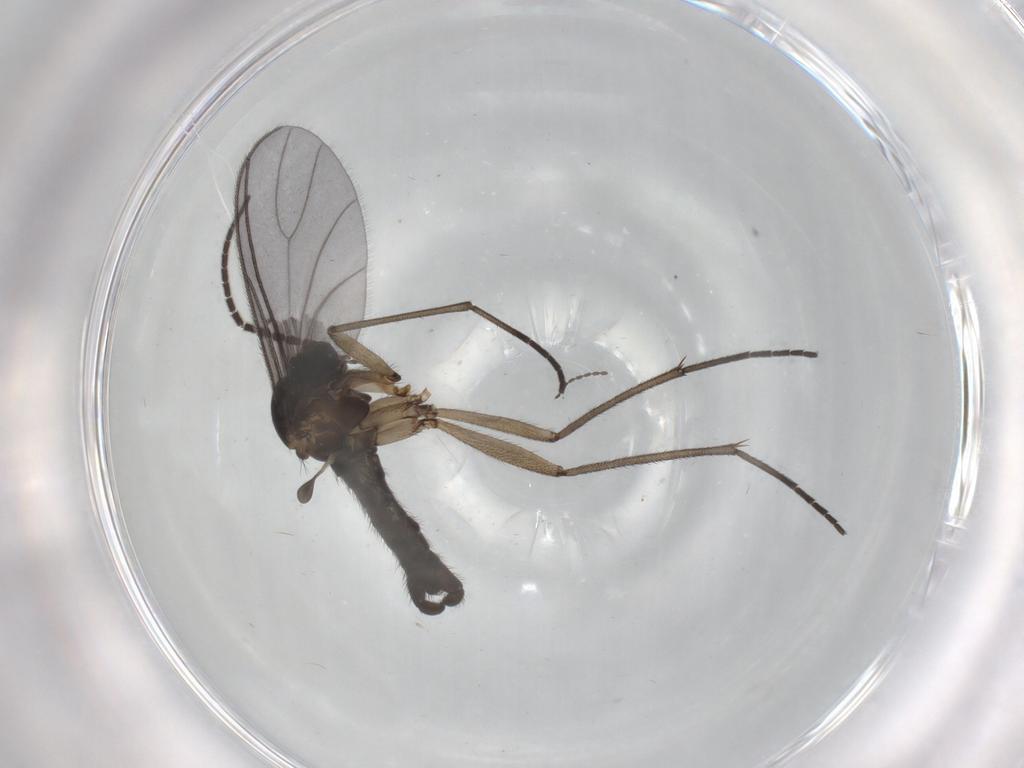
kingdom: Animalia
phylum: Arthropoda
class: Insecta
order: Diptera
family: Sciaridae
